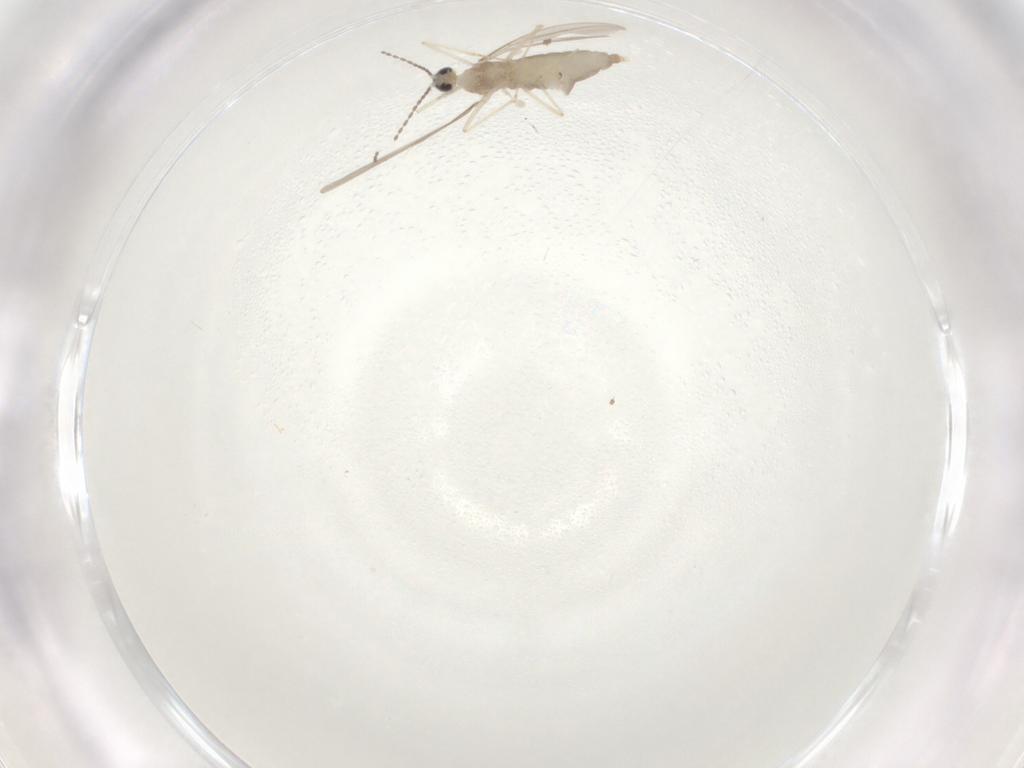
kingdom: Animalia
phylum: Arthropoda
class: Insecta
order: Diptera
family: Cecidomyiidae
